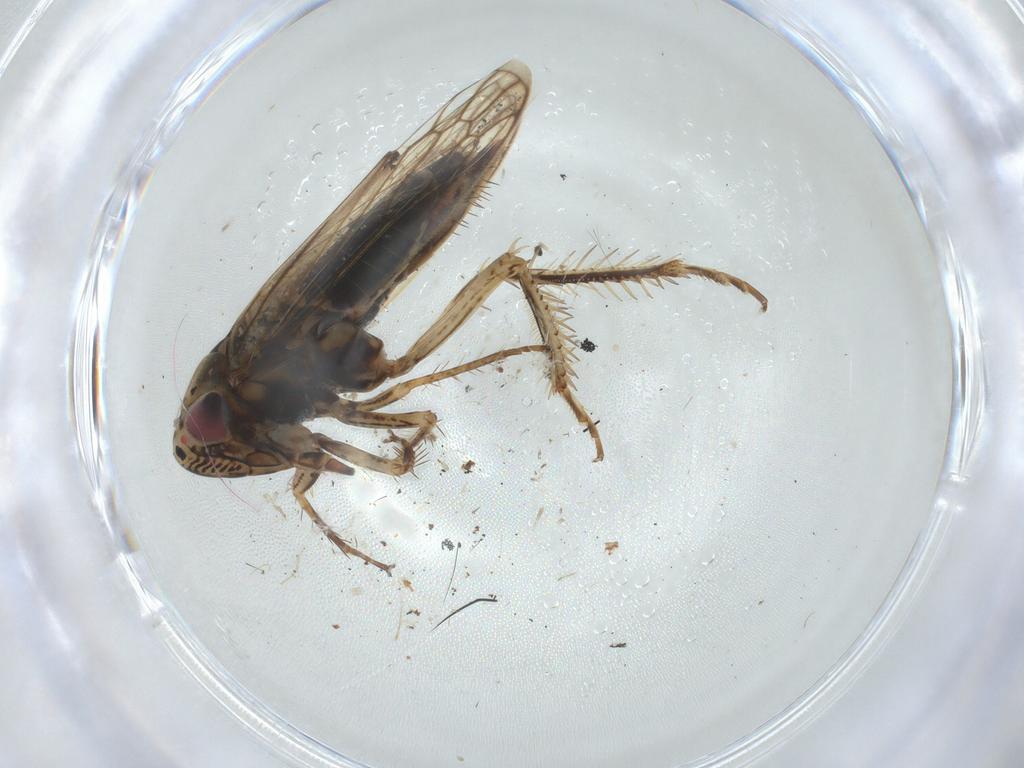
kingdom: Animalia
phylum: Arthropoda
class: Insecta
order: Hemiptera
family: Cicadellidae
